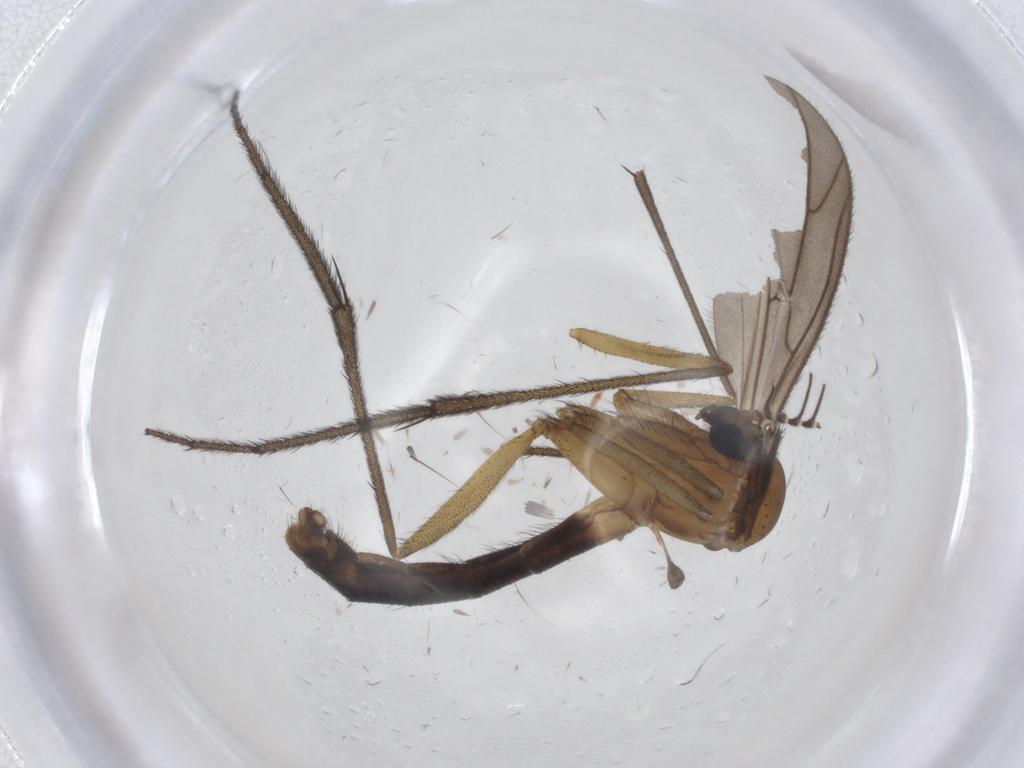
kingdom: Animalia
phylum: Arthropoda
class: Insecta
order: Diptera
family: Ditomyiidae
